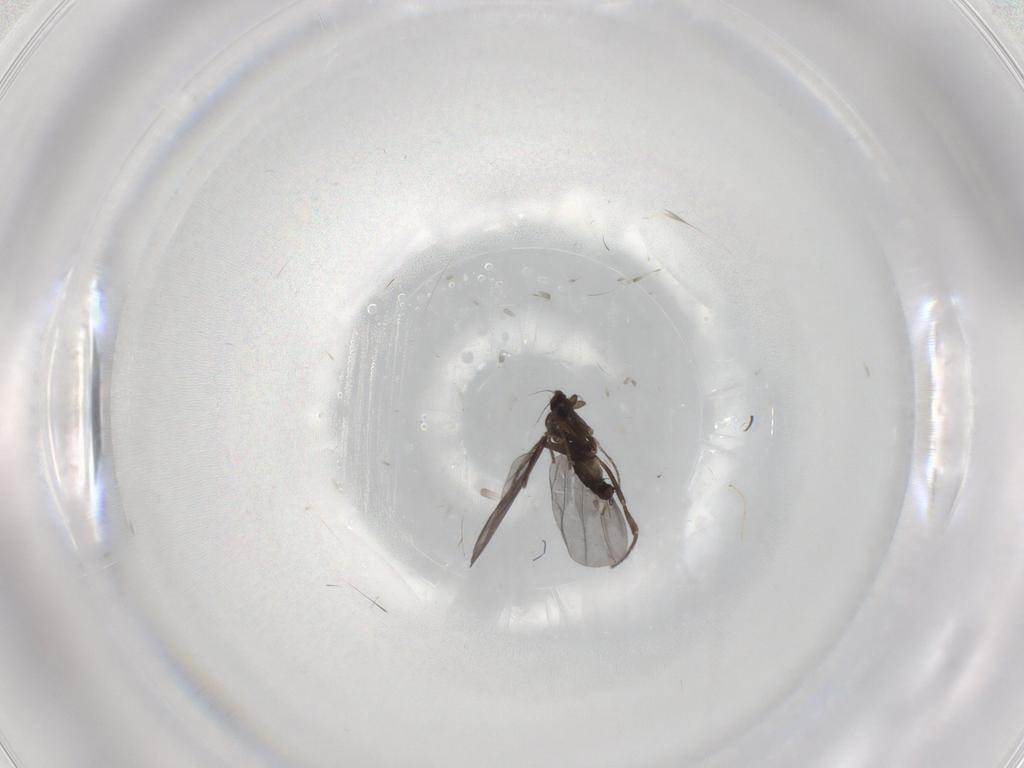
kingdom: Animalia
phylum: Arthropoda
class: Insecta
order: Diptera
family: Phoridae
